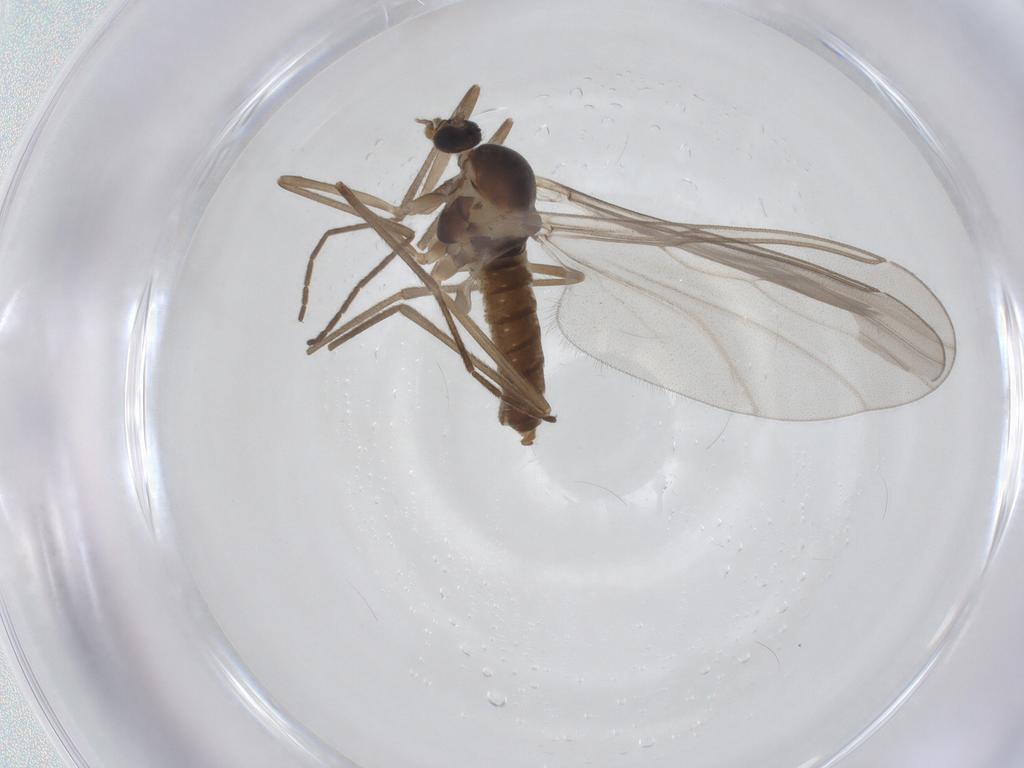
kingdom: Animalia
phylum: Arthropoda
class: Insecta
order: Diptera
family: Cecidomyiidae
